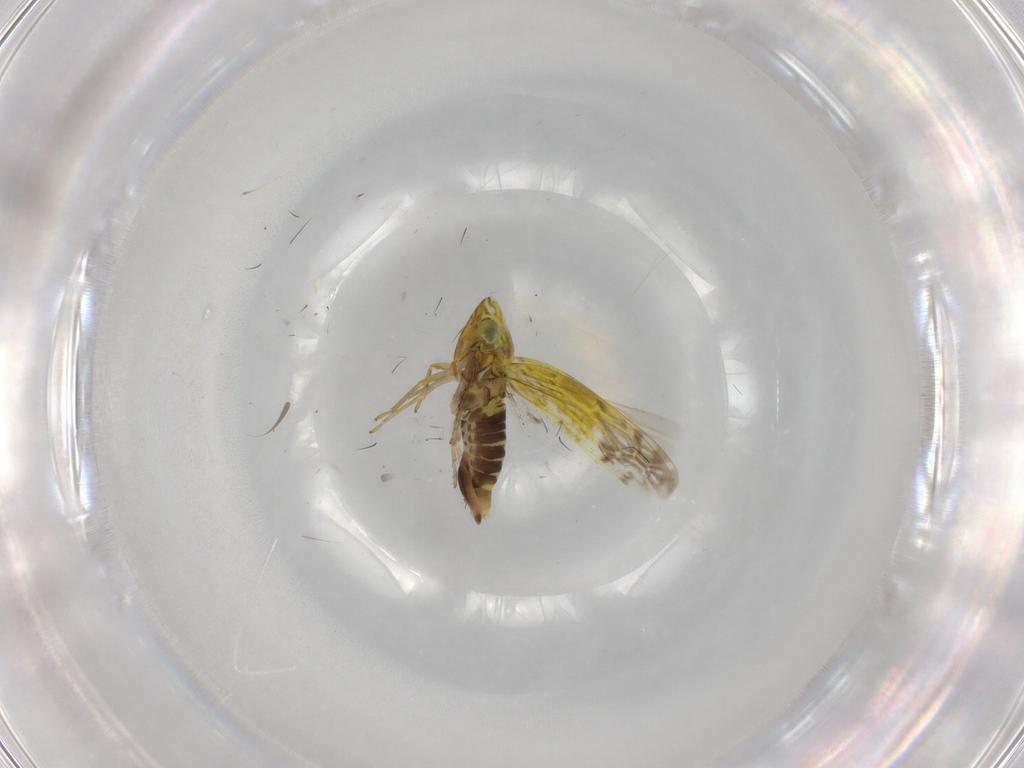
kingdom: Animalia
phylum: Arthropoda
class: Insecta
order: Hemiptera
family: Cicadellidae
